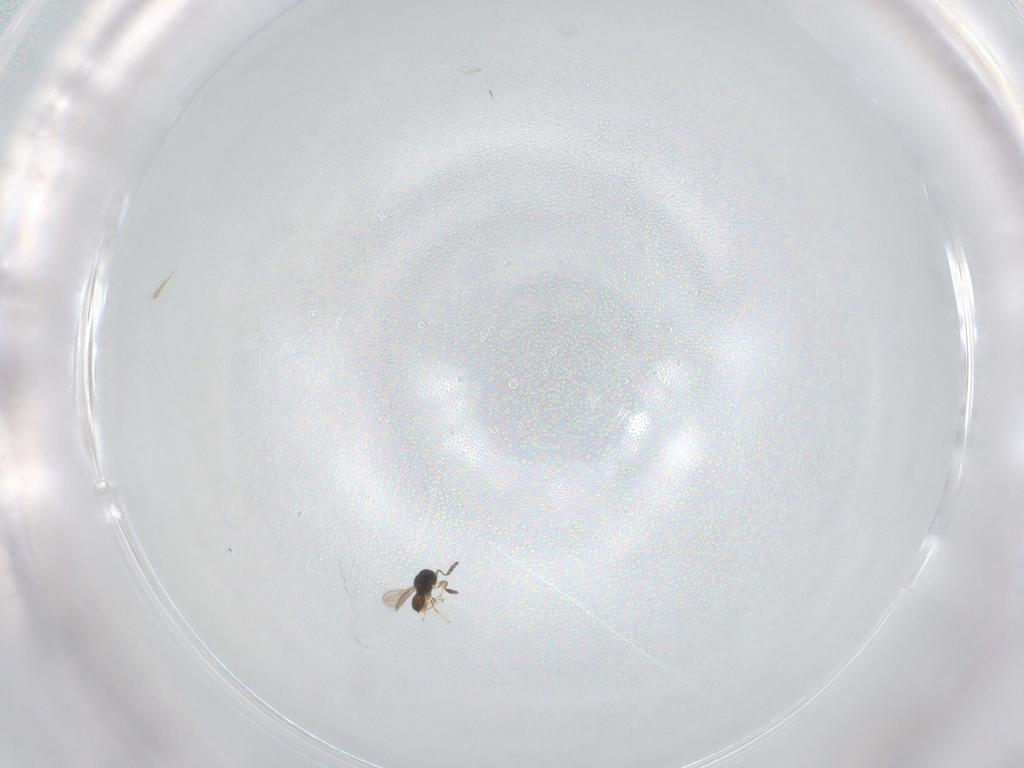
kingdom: Animalia
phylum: Arthropoda
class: Insecta
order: Hymenoptera
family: Scelionidae
